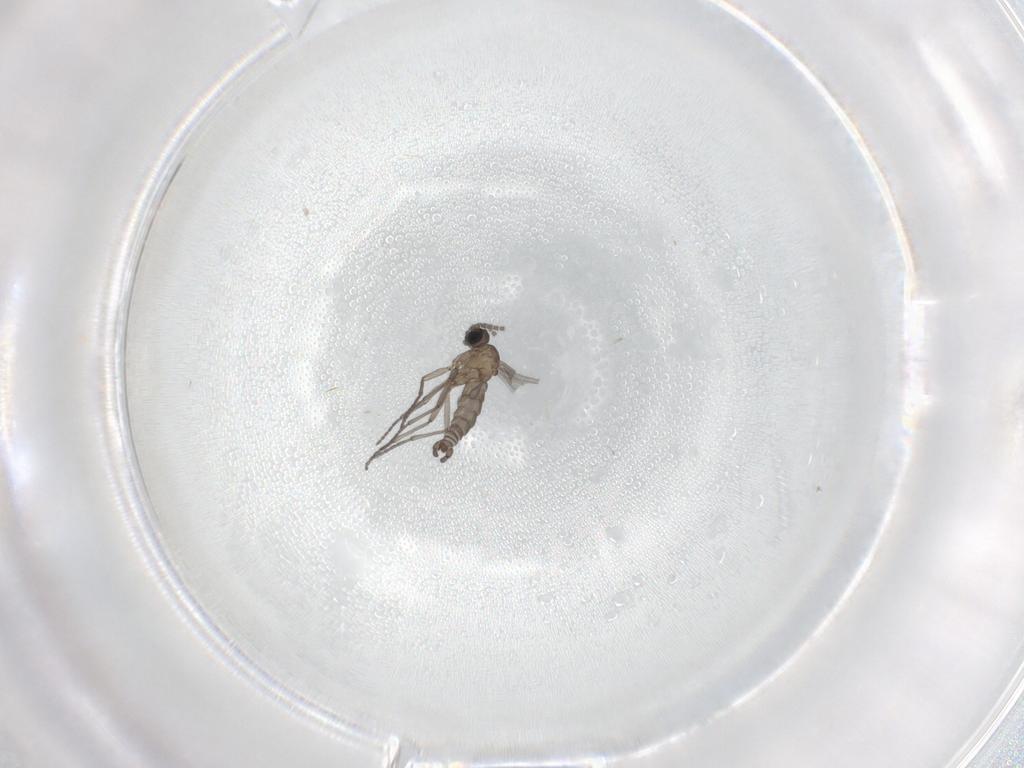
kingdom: Animalia
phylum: Arthropoda
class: Insecta
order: Diptera
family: Sciaridae
